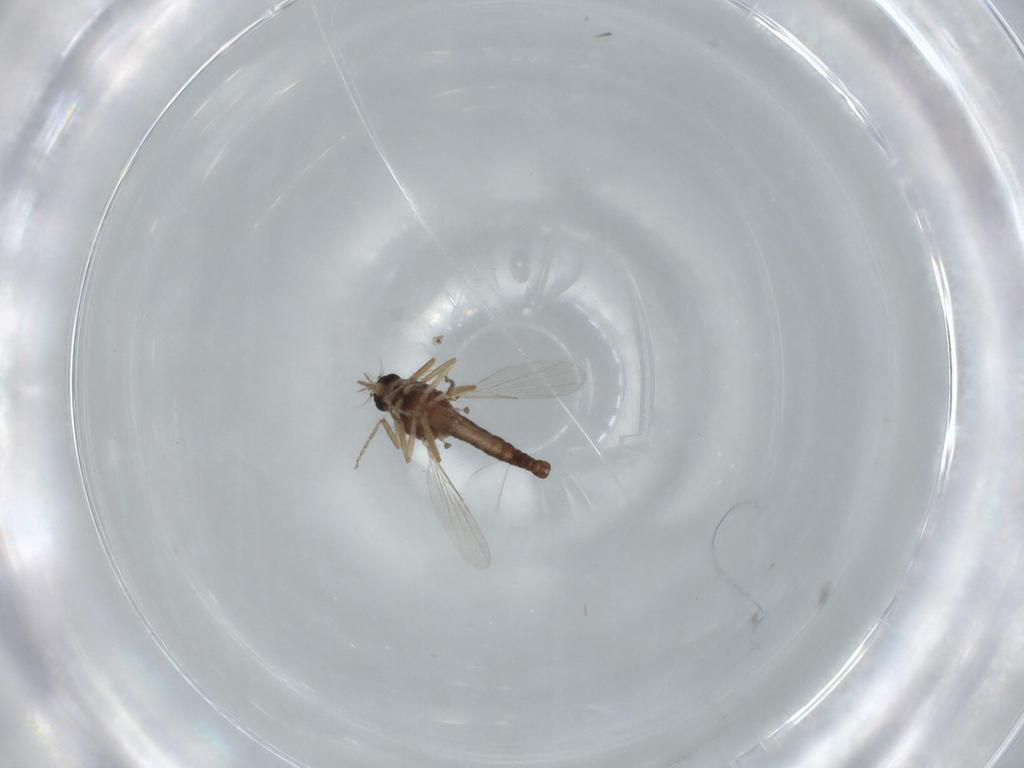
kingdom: Animalia
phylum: Arthropoda
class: Insecta
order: Diptera
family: Ceratopogonidae
